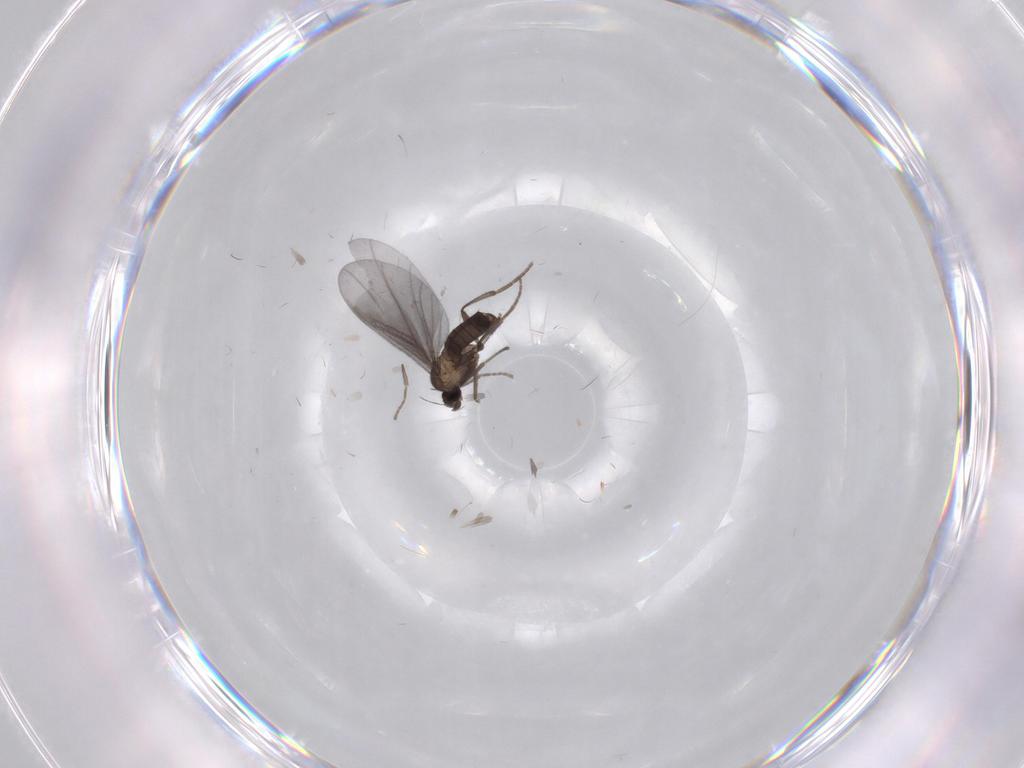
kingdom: Animalia
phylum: Arthropoda
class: Insecta
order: Diptera
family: Phoridae
